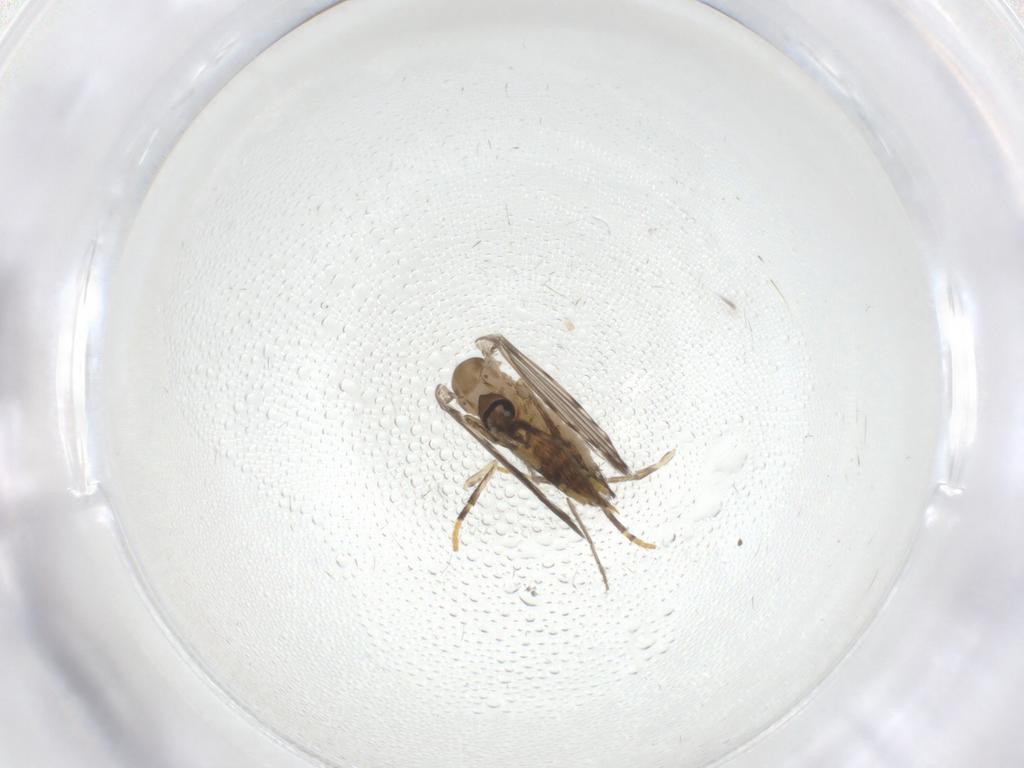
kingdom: Animalia
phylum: Arthropoda
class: Insecta
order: Diptera
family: Psychodidae
